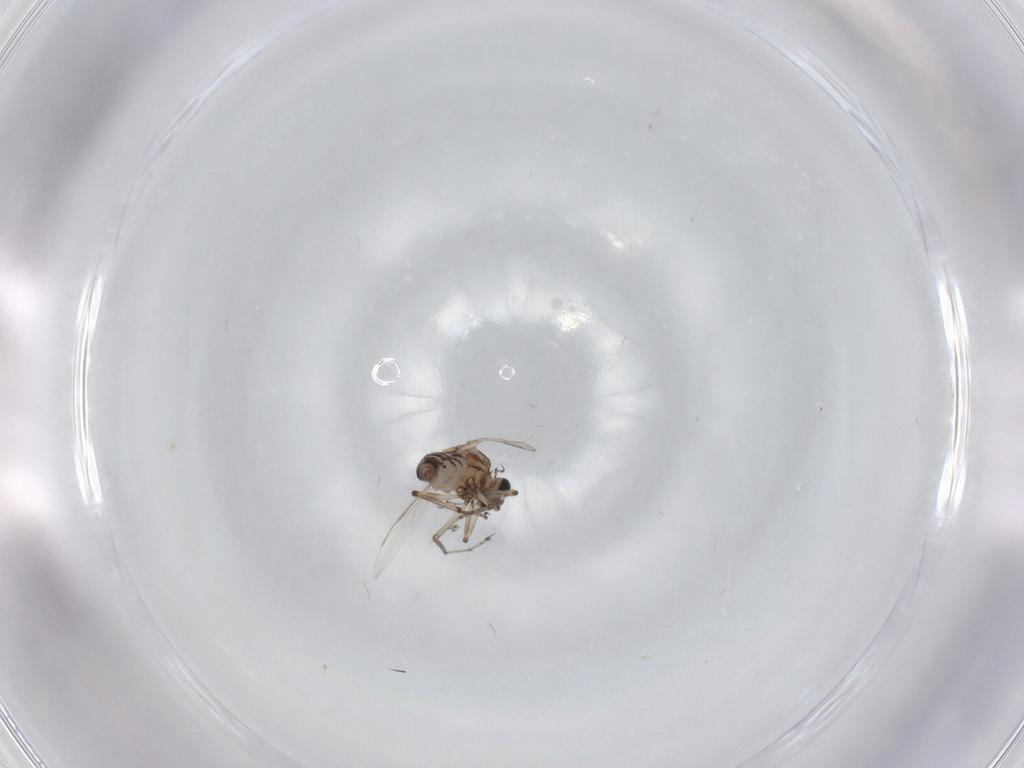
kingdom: Animalia
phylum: Arthropoda
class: Insecta
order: Diptera
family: Ceratopogonidae
